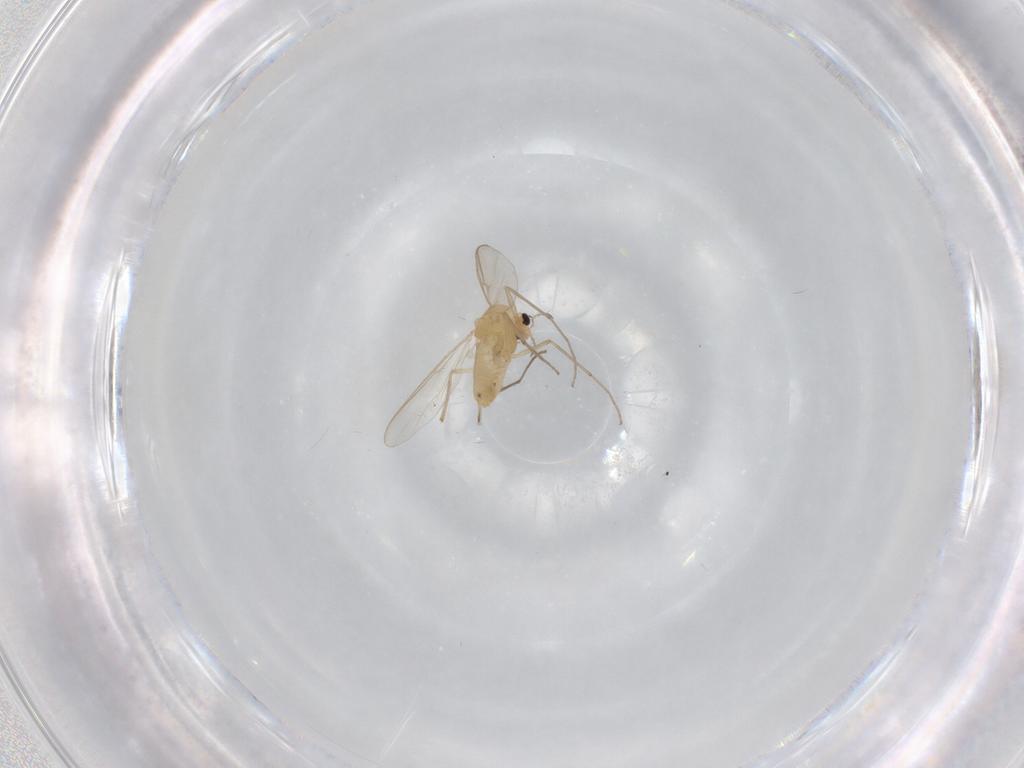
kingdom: Animalia
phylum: Arthropoda
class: Insecta
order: Diptera
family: Chironomidae
